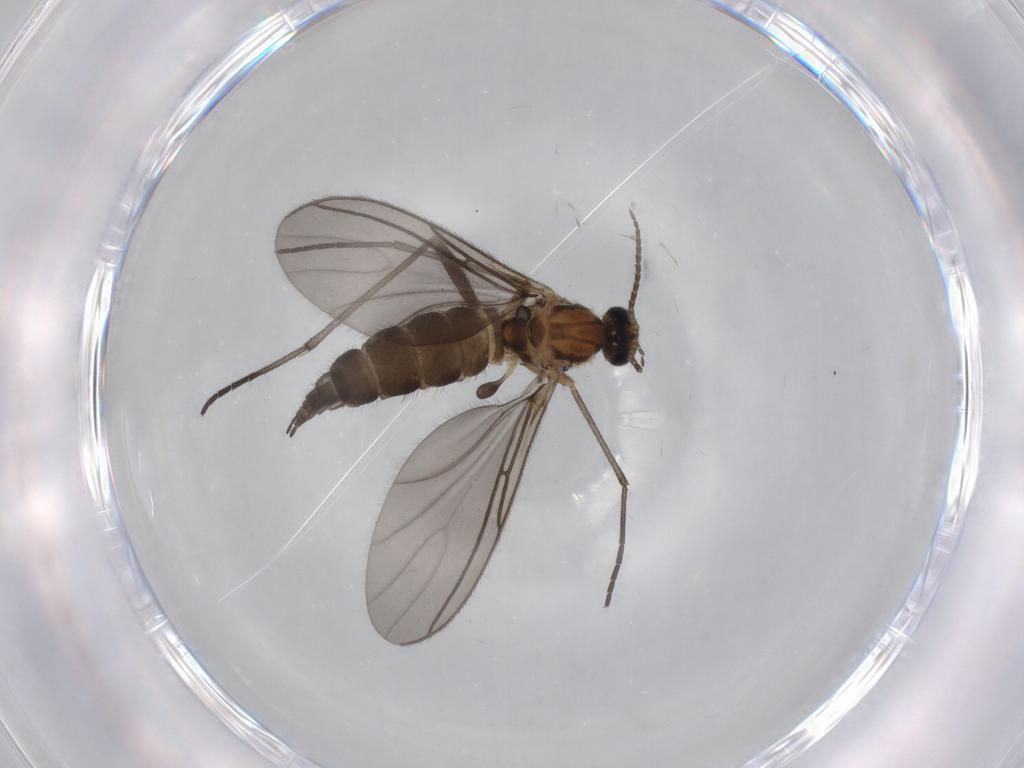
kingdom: Animalia
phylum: Arthropoda
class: Insecta
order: Diptera
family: Sciaridae
